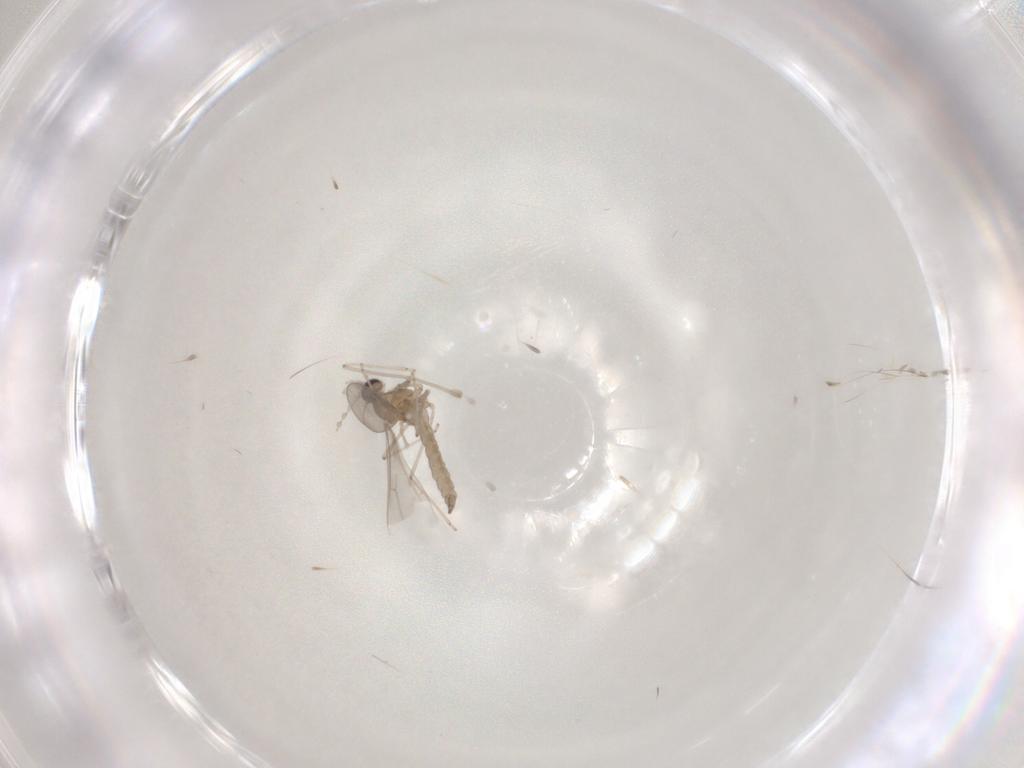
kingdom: Animalia
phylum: Arthropoda
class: Insecta
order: Diptera
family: Cecidomyiidae
